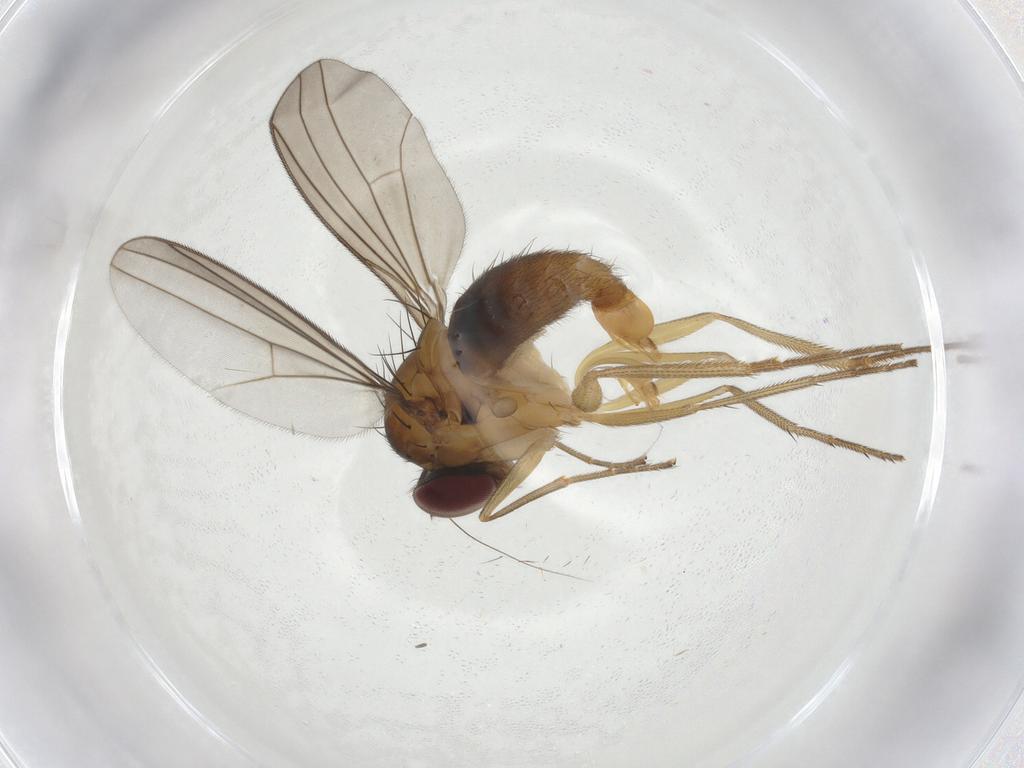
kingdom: Animalia
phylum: Arthropoda
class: Insecta
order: Diptera
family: Dolichopodidae
